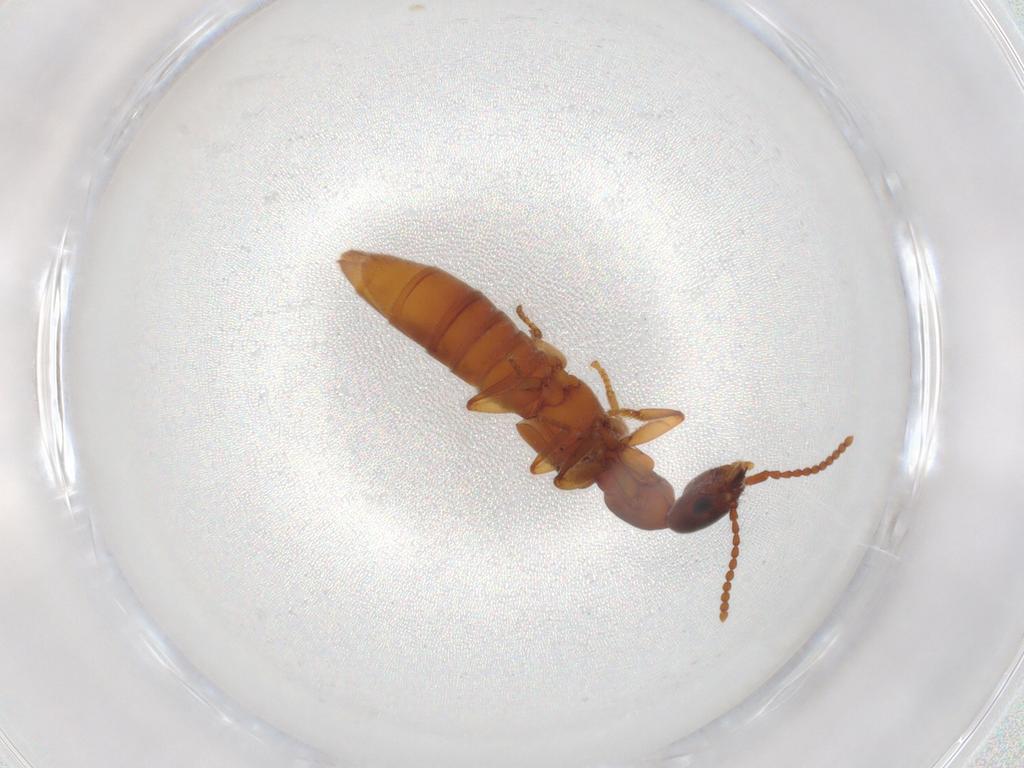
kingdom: Animalia
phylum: Arthropoda
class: Insecta
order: Coleoptera
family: Staphylinidae
